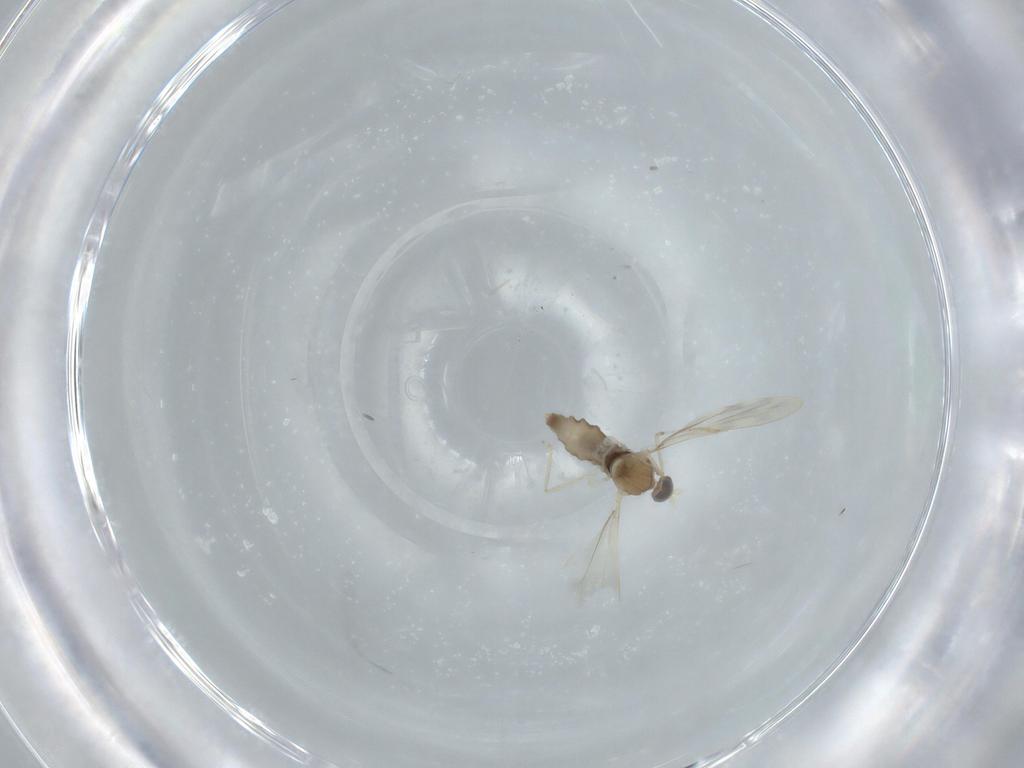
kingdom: Animalia
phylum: Arthropoda
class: Insecta
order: Diptera
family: Cecidomyiidae
